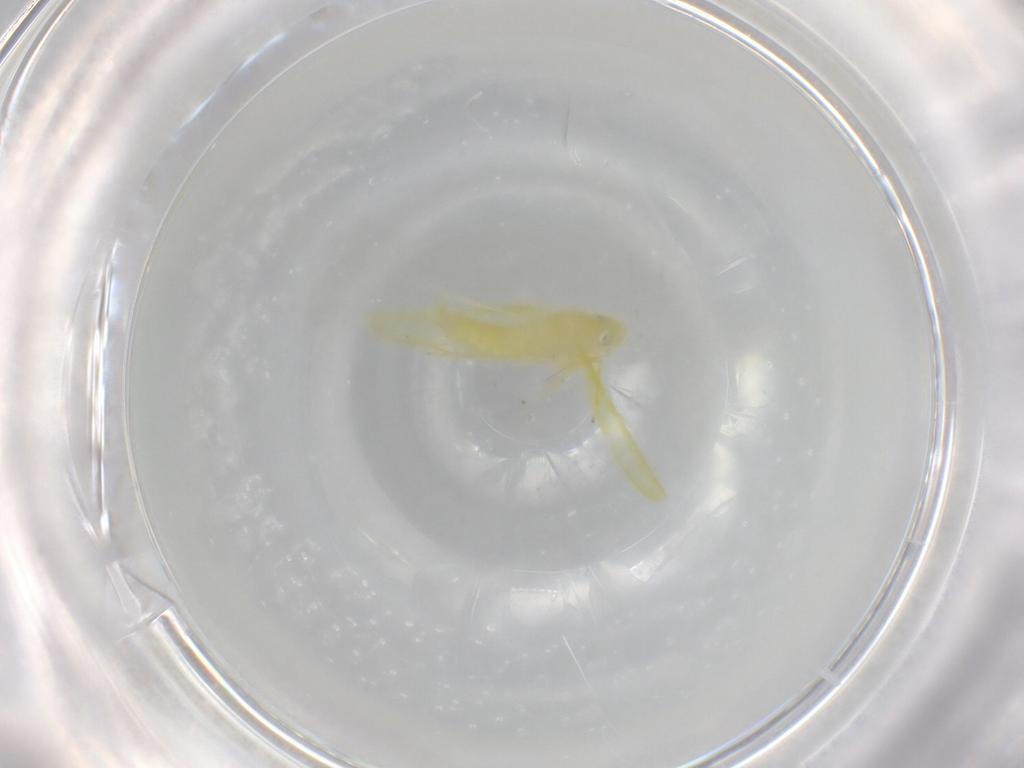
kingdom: Animalia
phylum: Arthropoda
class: Insecta
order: Hemiptera
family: Cicadellidae
